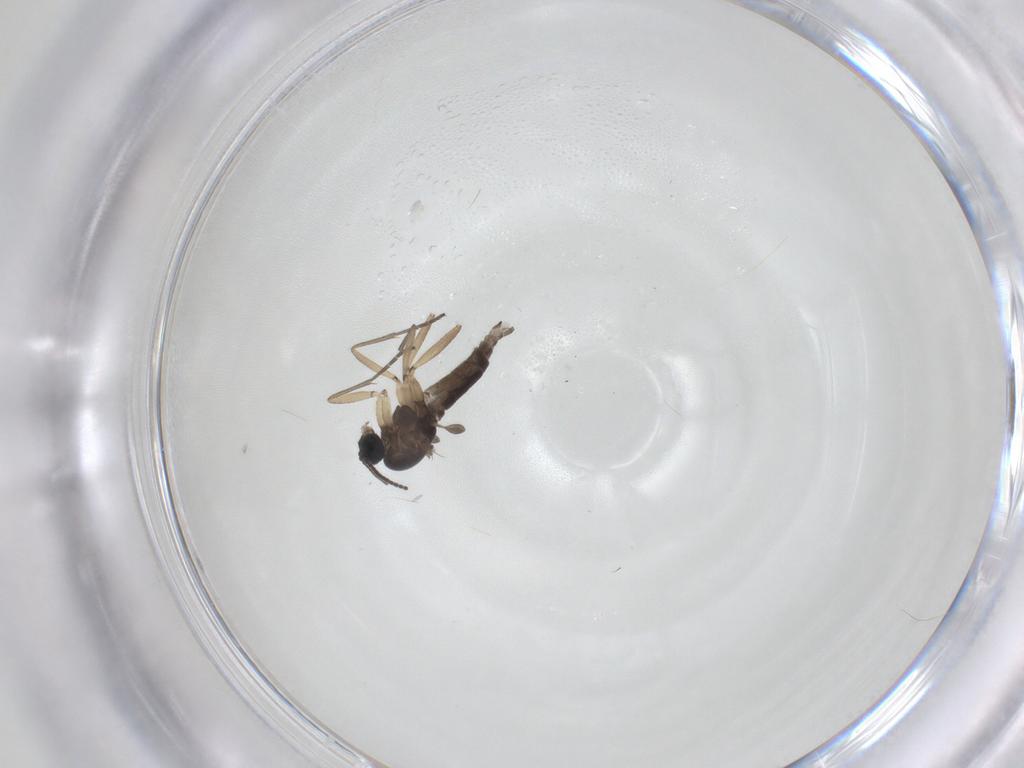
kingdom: Animalia
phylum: Arthropoda
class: Insecta
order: Diptera
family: Sciaridae
